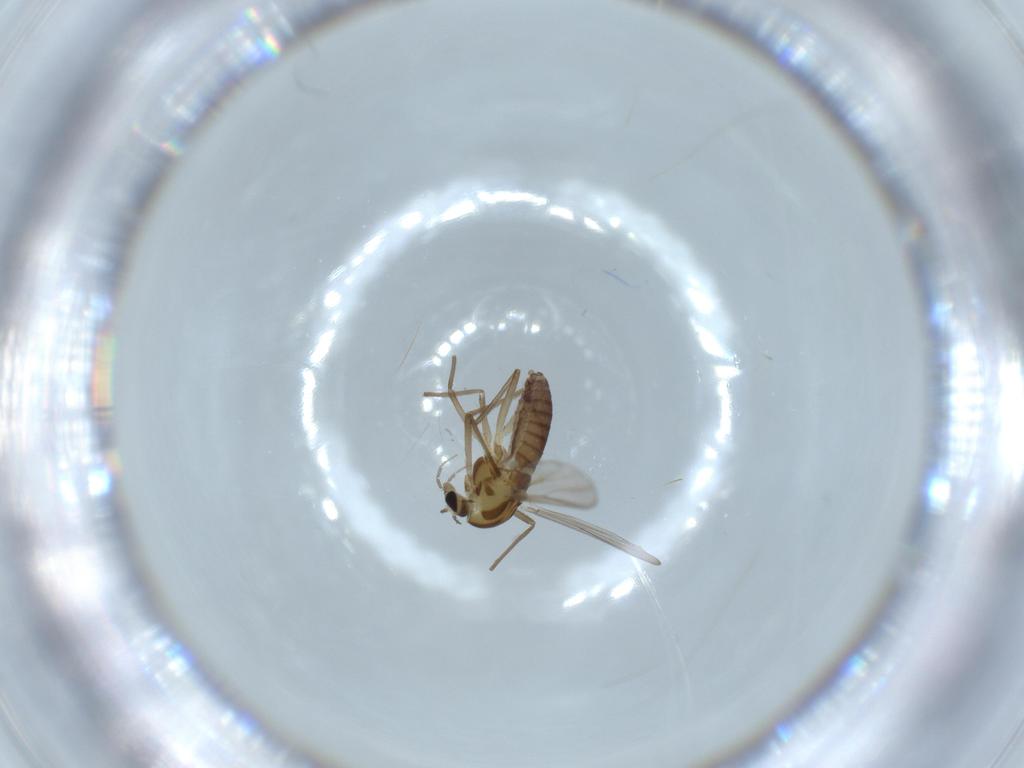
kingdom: Animalia
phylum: Arthropoda
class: Insecta
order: Diptera
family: Chironomidae
